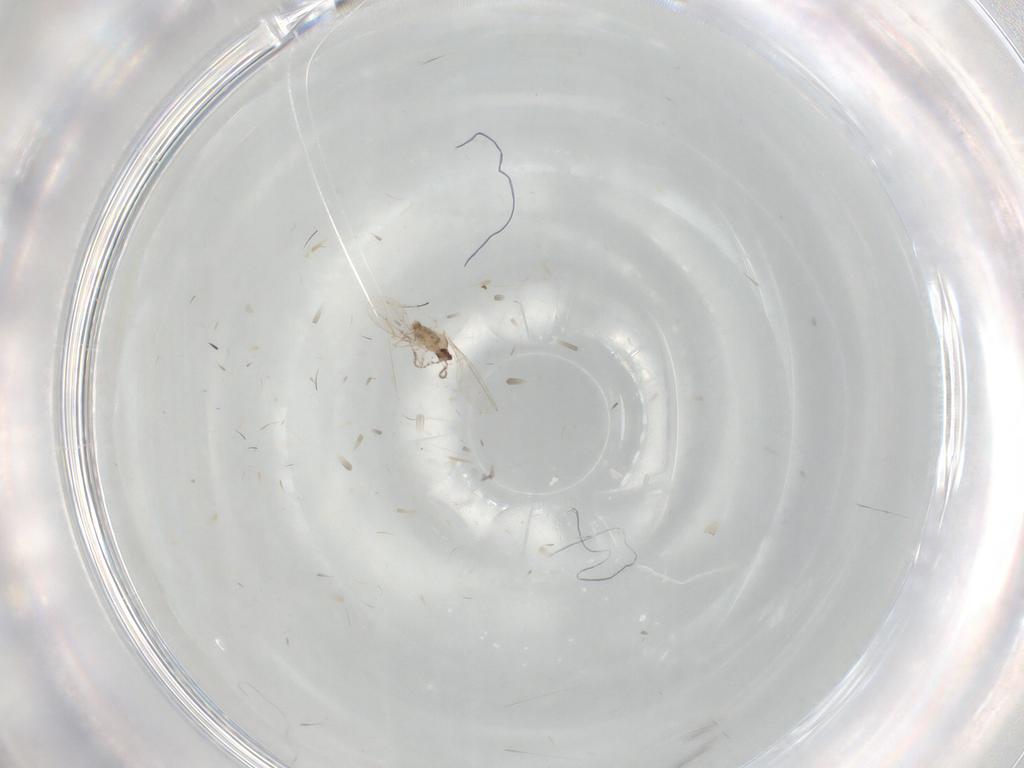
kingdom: Animalia
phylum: Arthropoda
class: Insecta
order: Diptera
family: Cecidomyiidae
